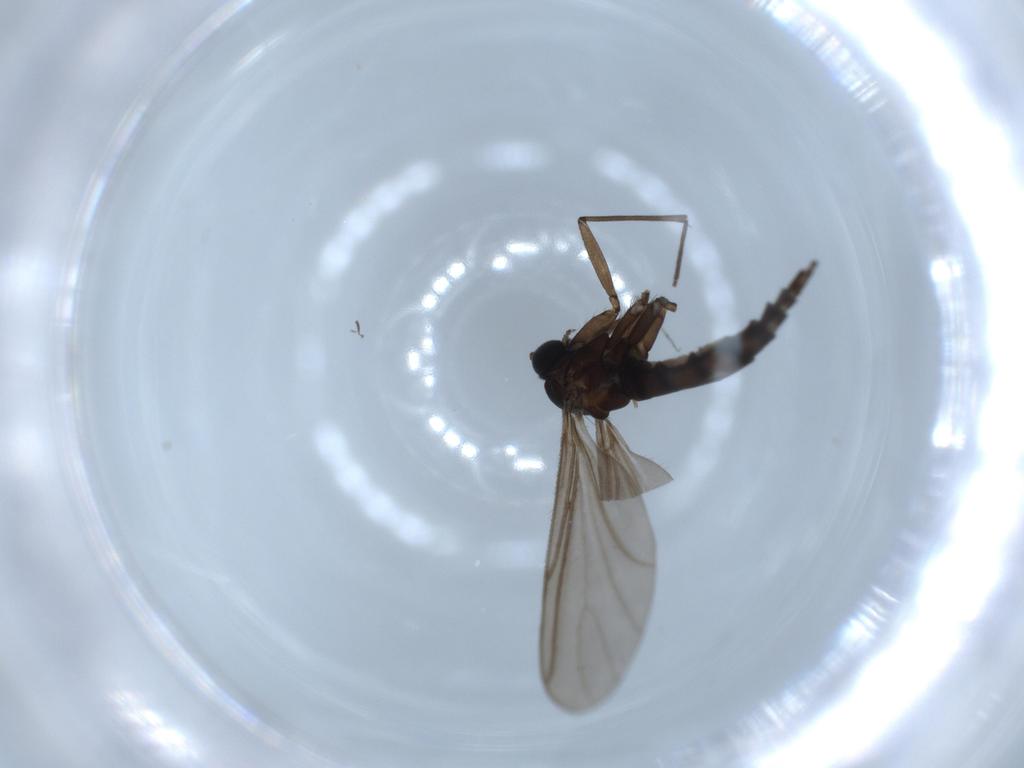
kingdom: Animalia
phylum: Arthropoda
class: Insecta
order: Diptera
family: Sciaridae
